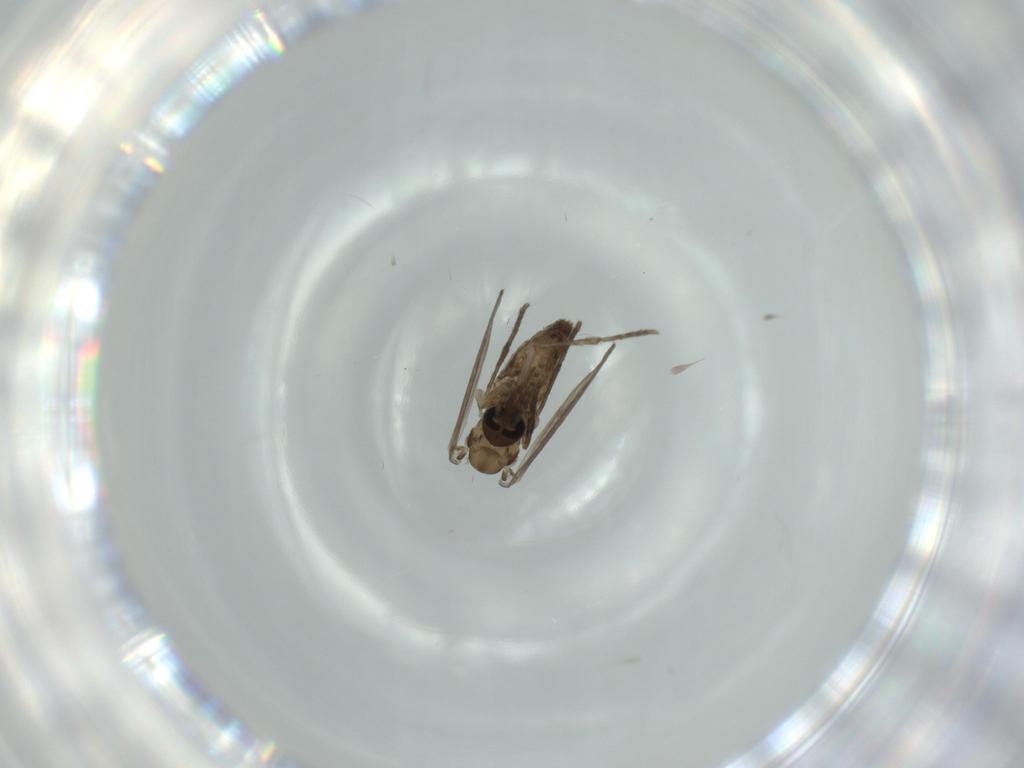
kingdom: Animalia
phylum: Arthropoda
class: Insecta
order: Diptera
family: Psychodidae
